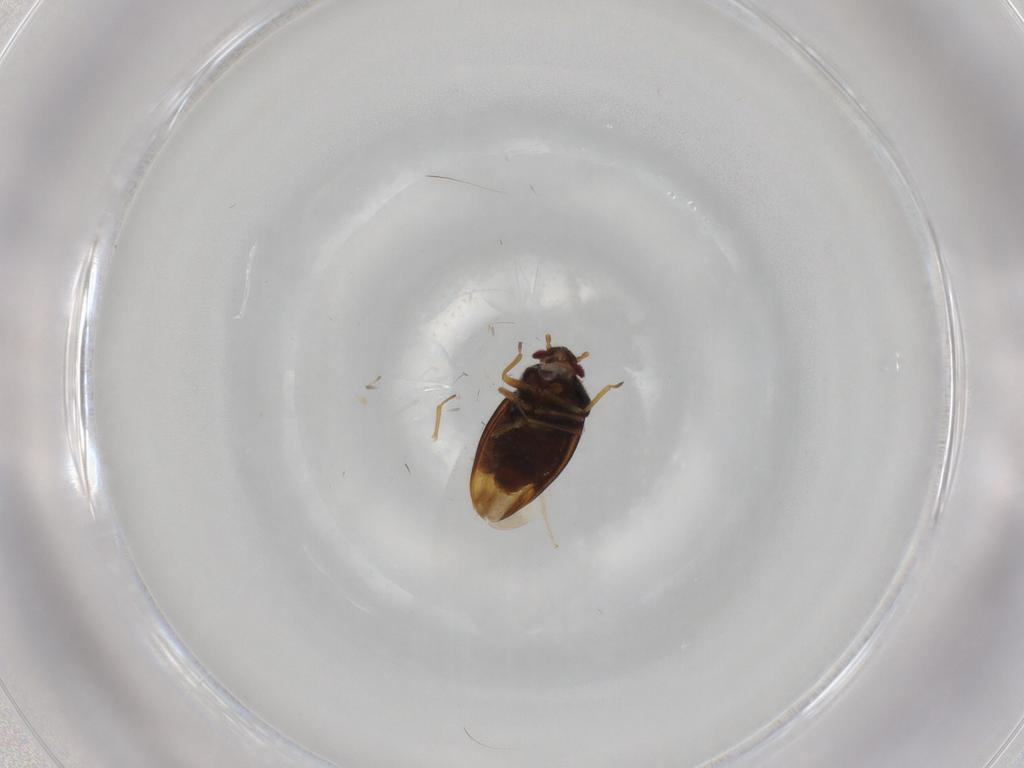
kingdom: Animalia
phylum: Arthropoda
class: Insecta
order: Hemiptera
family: Schizopteridae
